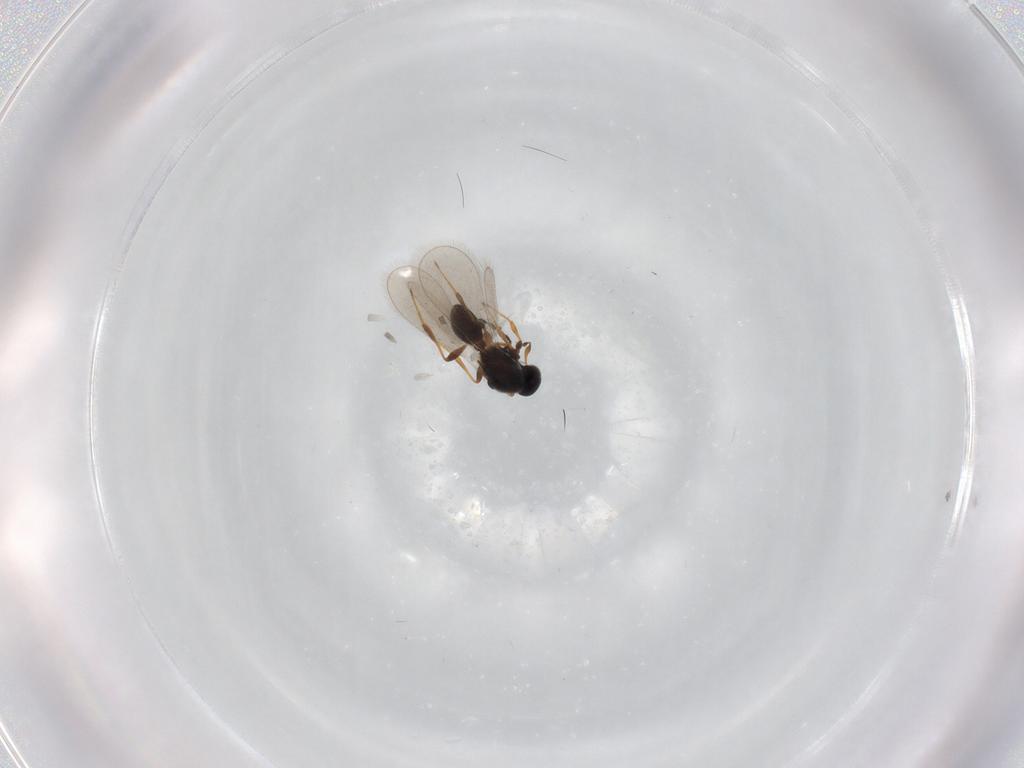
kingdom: Animalia
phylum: Arthropoda
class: Insecta
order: Hymenoptera
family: Platygastridae
